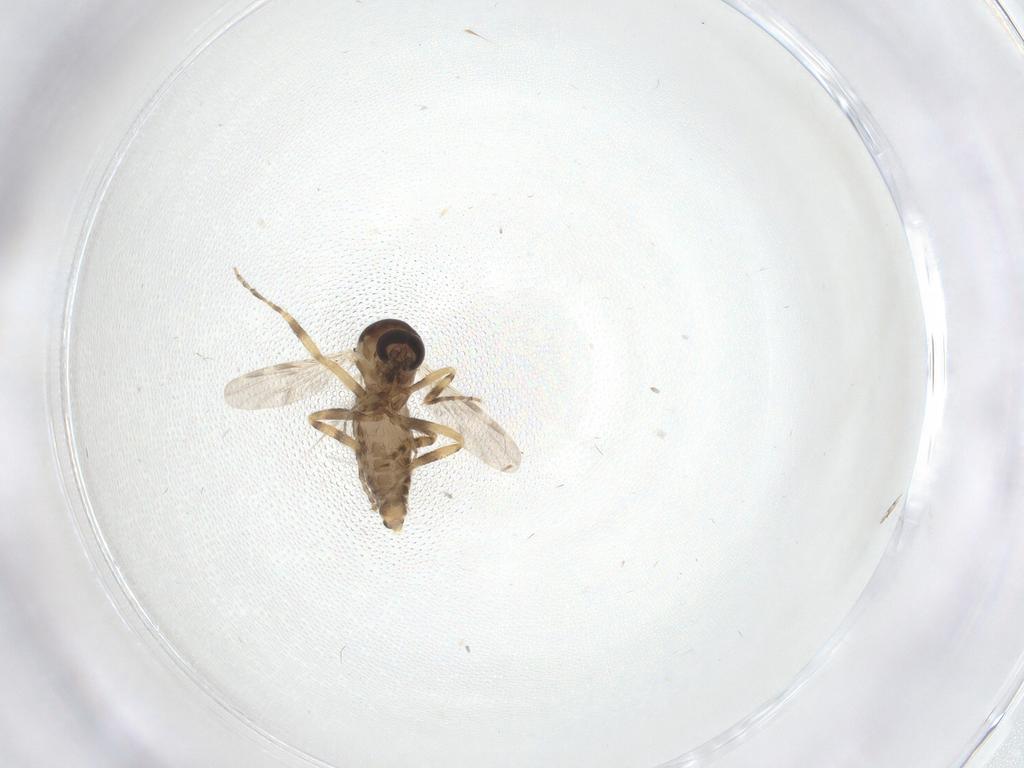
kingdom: Animalia
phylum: Arthropoda
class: Insecta
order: Diptera
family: Ceratopogonidae
